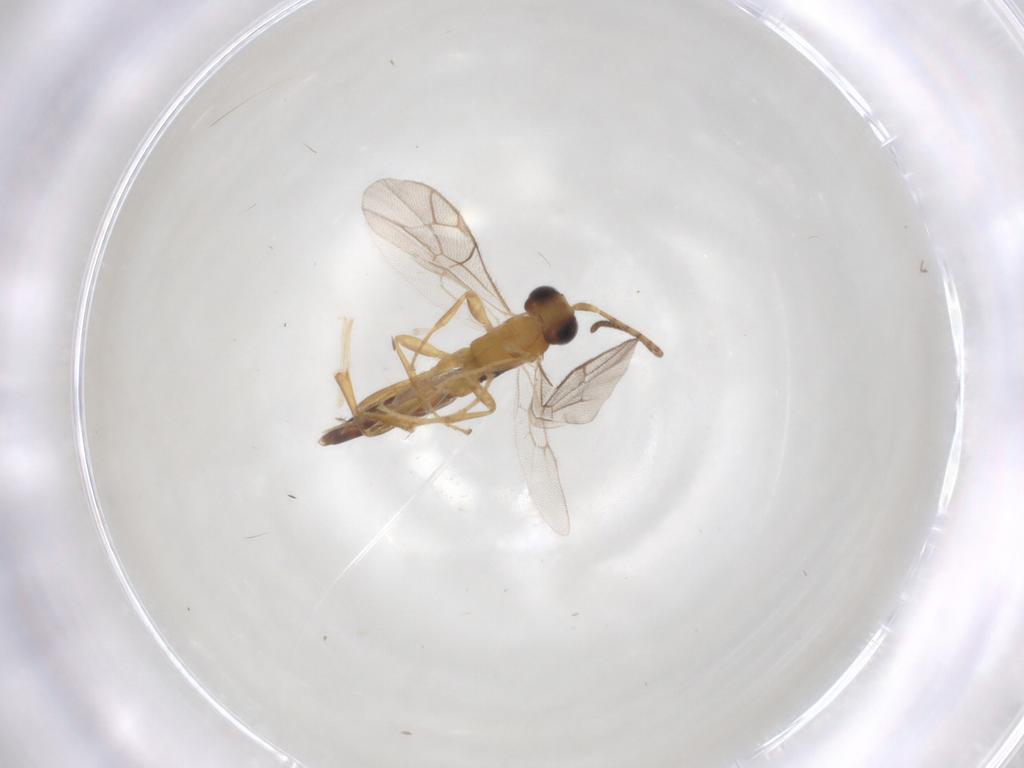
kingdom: Animalia
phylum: Arthropoda
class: Insecta
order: Hymenoptera
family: Ichneumonidae
